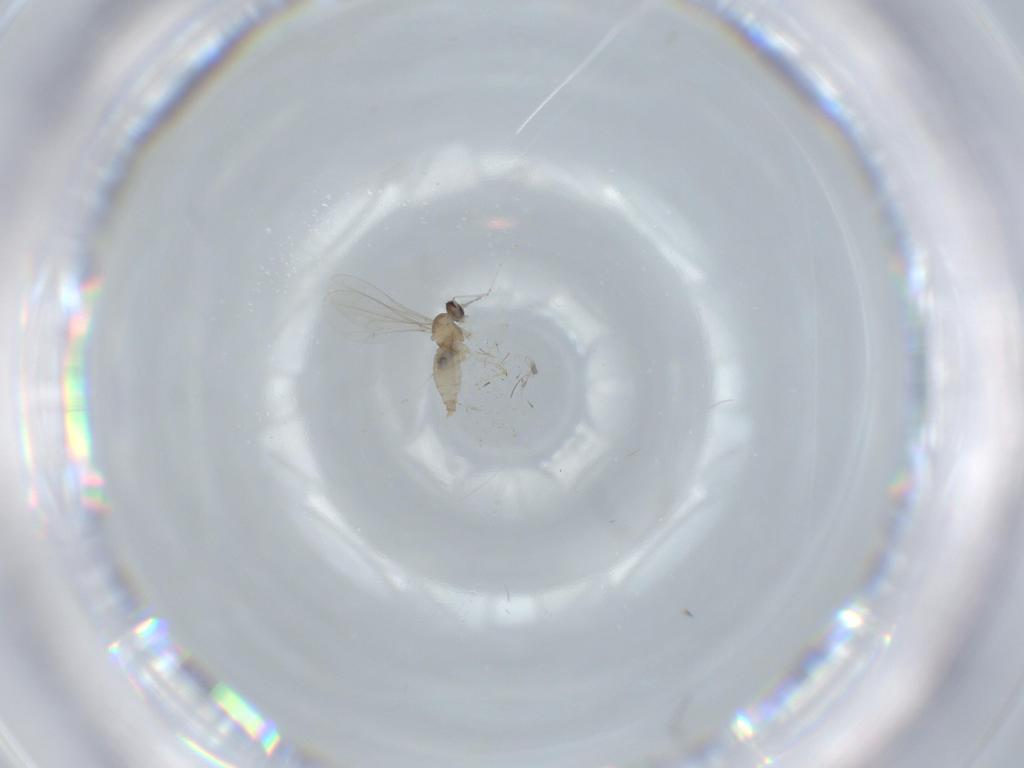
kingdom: Animalia
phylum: Arthropoda
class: Insecta
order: Diptera
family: Cecidomyiidae
